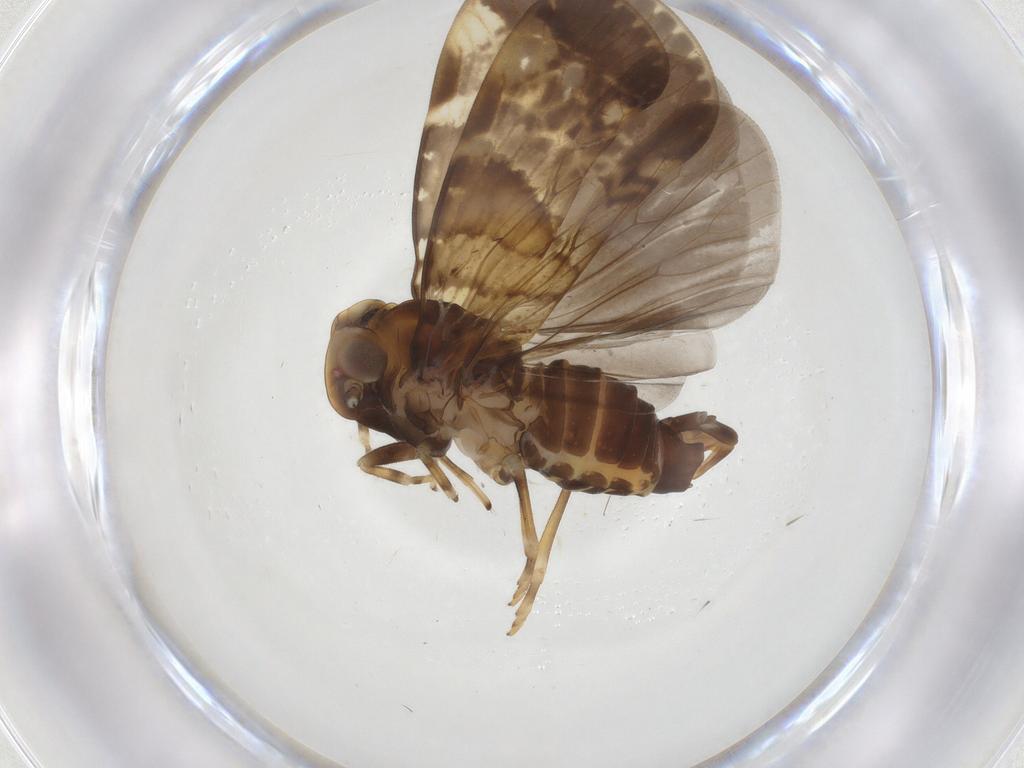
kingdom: Animalia
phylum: Arthropoda
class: Insecta
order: Hemiptera
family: Cixiidae
